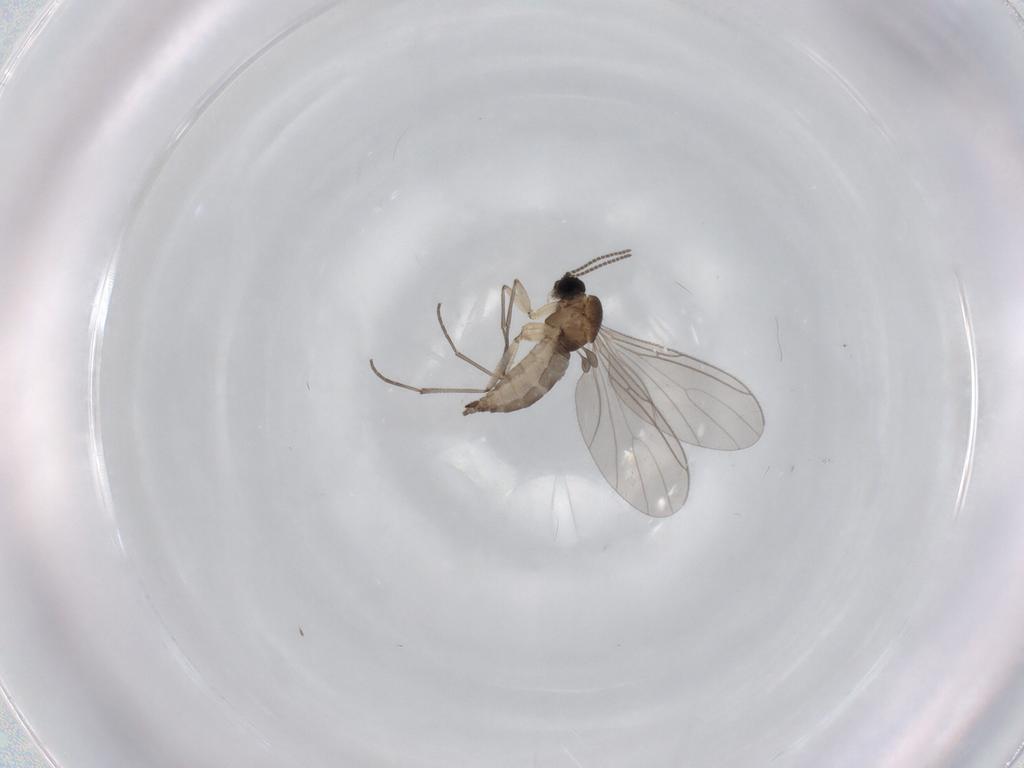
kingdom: Animalia
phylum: Arthropoda
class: Insecta
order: Diptera
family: Sciaridae
